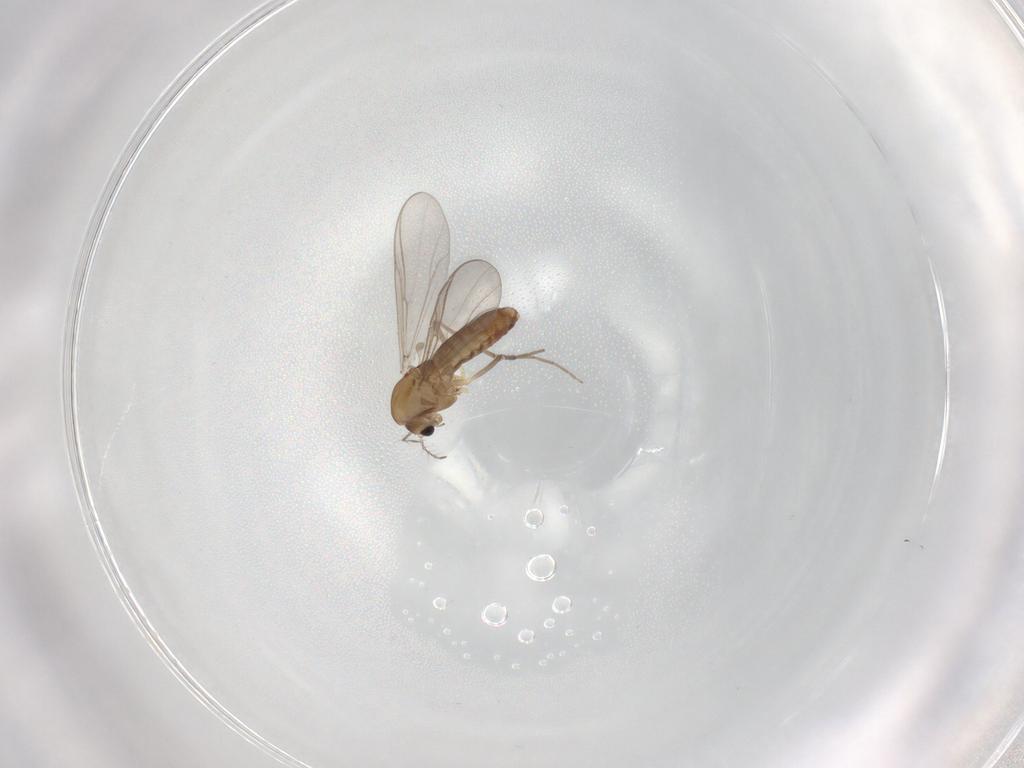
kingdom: Animalia
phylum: Arthropoda
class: Insecta
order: Diptera
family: Chironomidae
